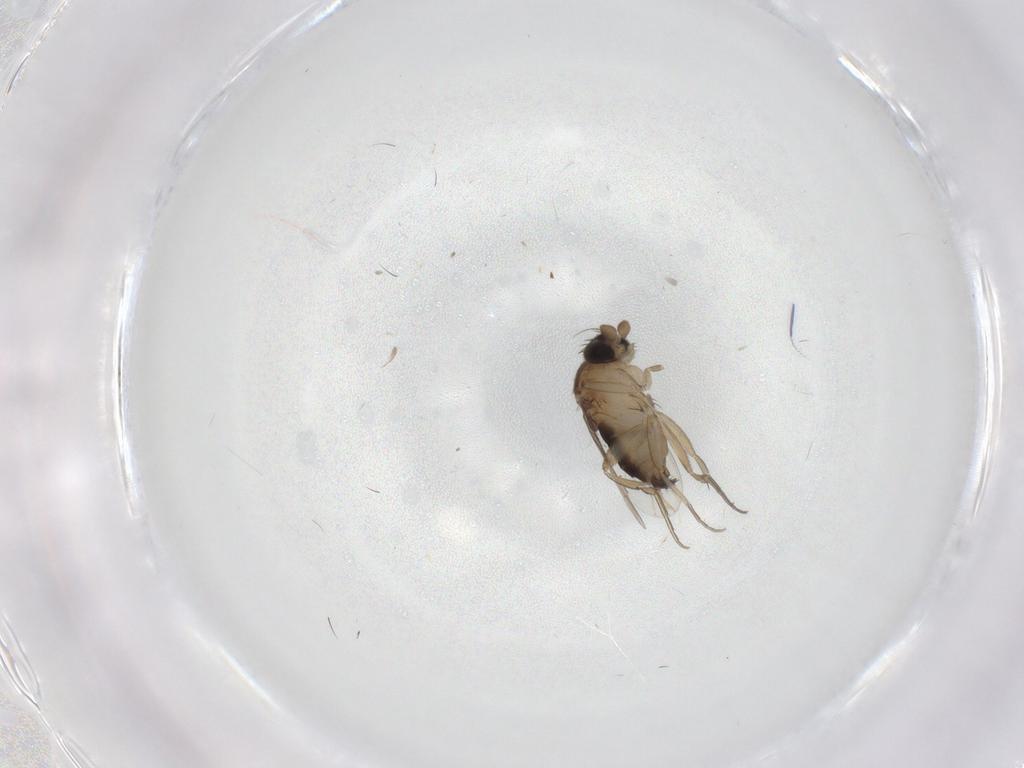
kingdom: Animalia
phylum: Arthropoda
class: Insecta
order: Diptera
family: Phoridae
